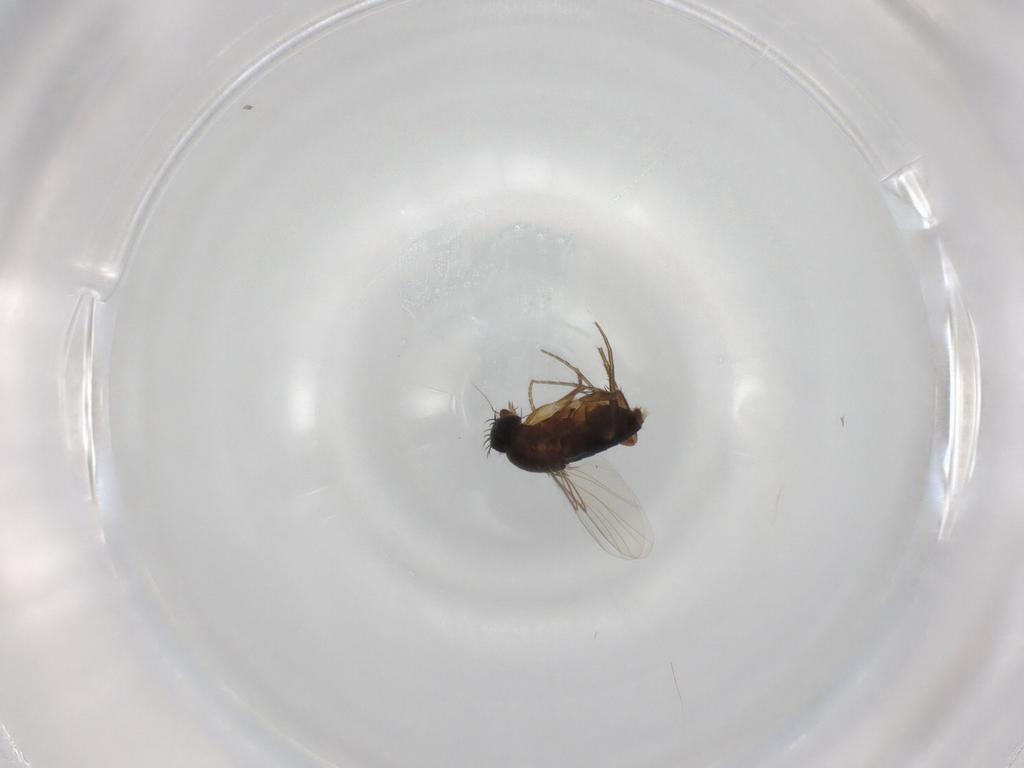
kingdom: Animalia
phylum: Arthropoda
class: Insecta
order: Diptera
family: Phoridae
